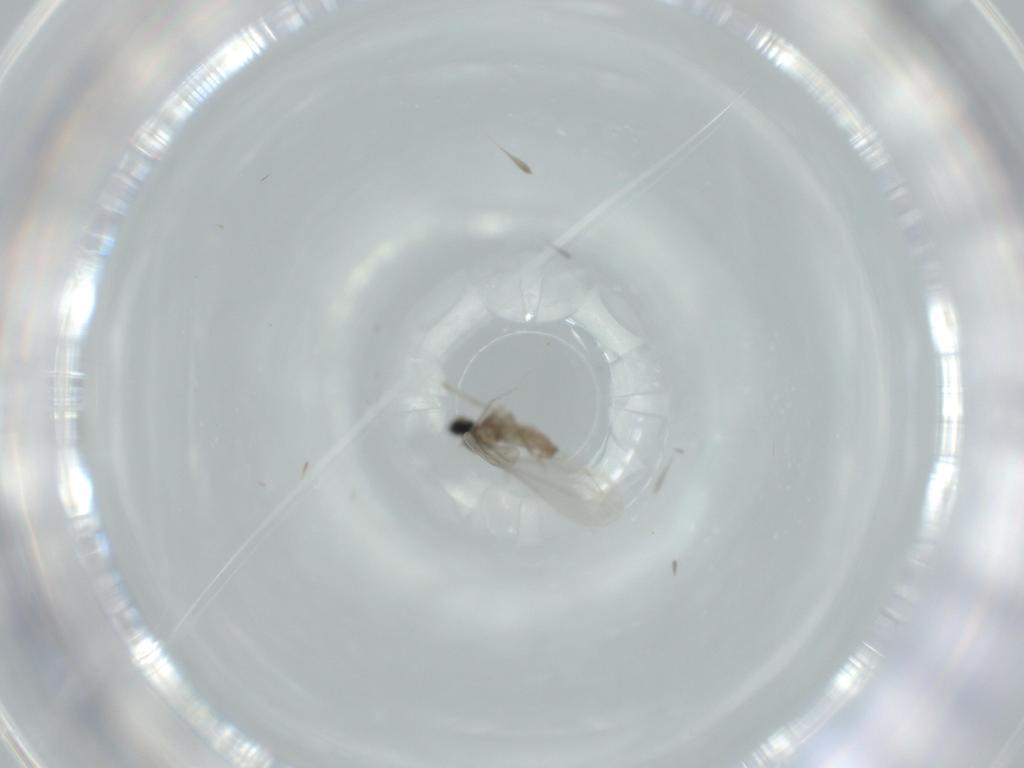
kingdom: Animalia
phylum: Arthropoda
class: Insecta
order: Diptera
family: Cecidomyiidae
